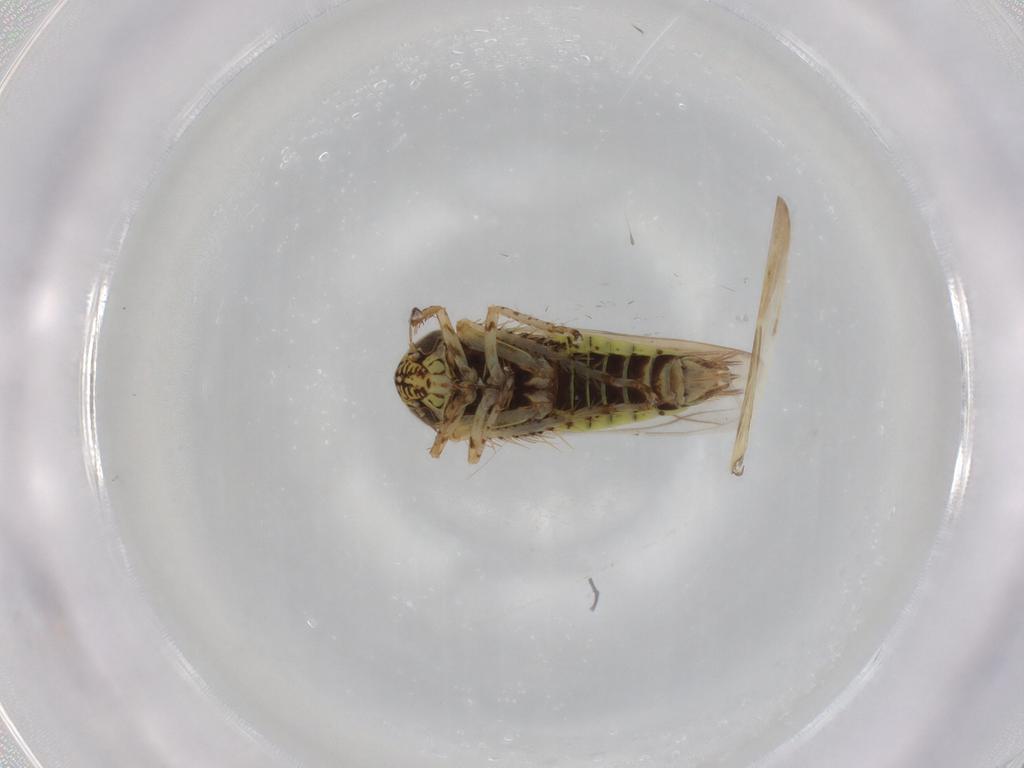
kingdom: Animalia
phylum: Arthropoda
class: Insecta
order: Hemiptera
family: Cicadellidae
